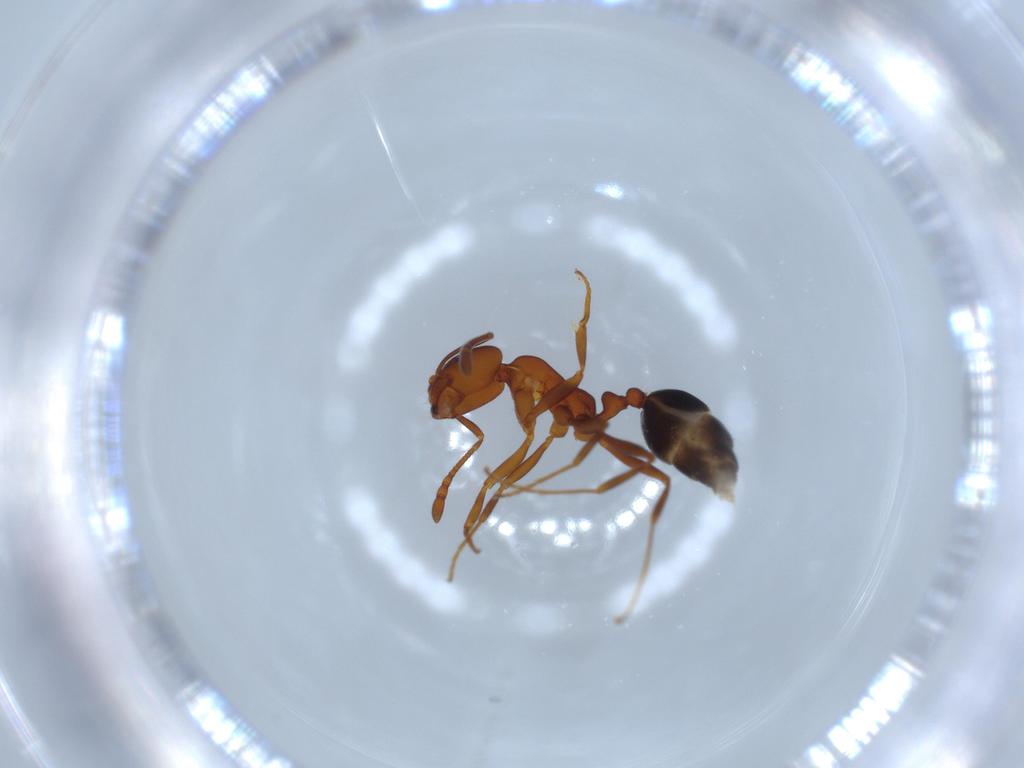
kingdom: Animalia
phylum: Arthropoda
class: Insecta
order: Hymenoptera
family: Formicidae
